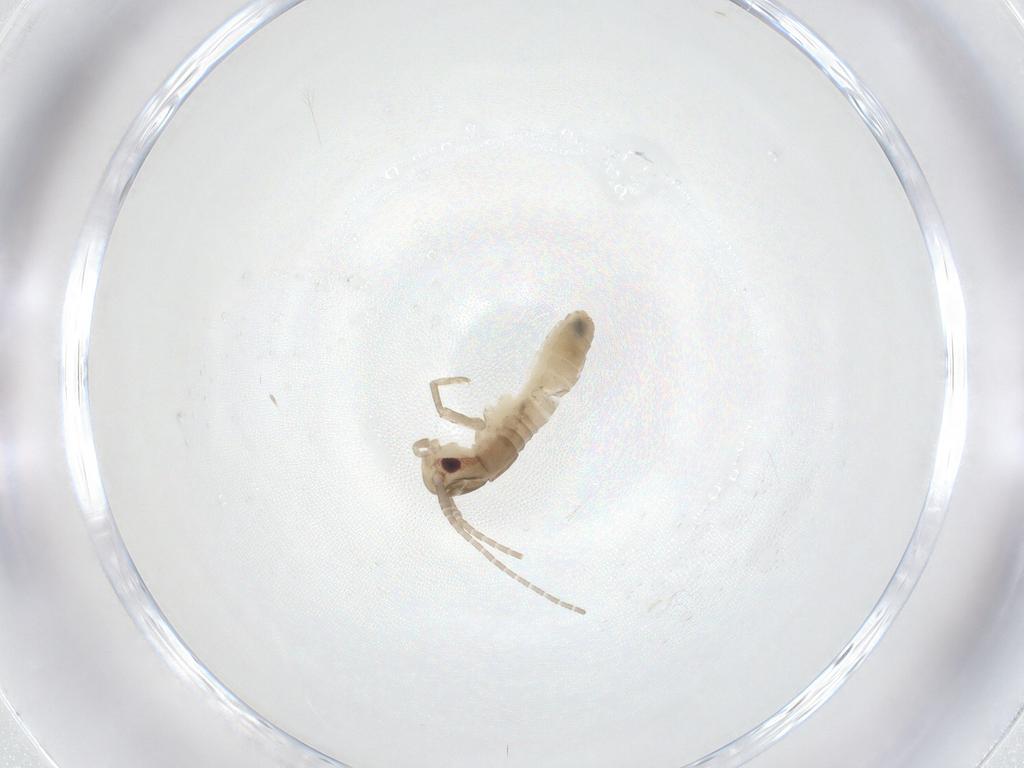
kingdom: Animalia
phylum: Arthropoda
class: Insecta
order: Orthoptera
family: Gryllidae
